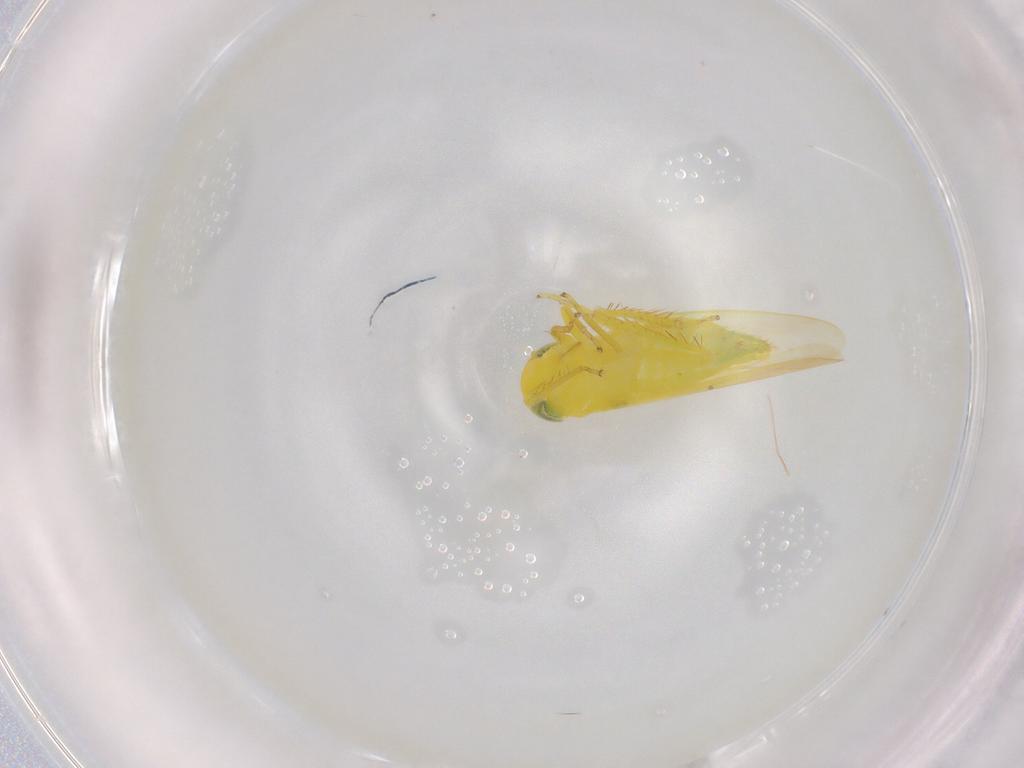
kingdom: Animalia
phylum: Arthropoda
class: Insecta
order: Hemiptera
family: Cicadellidae
